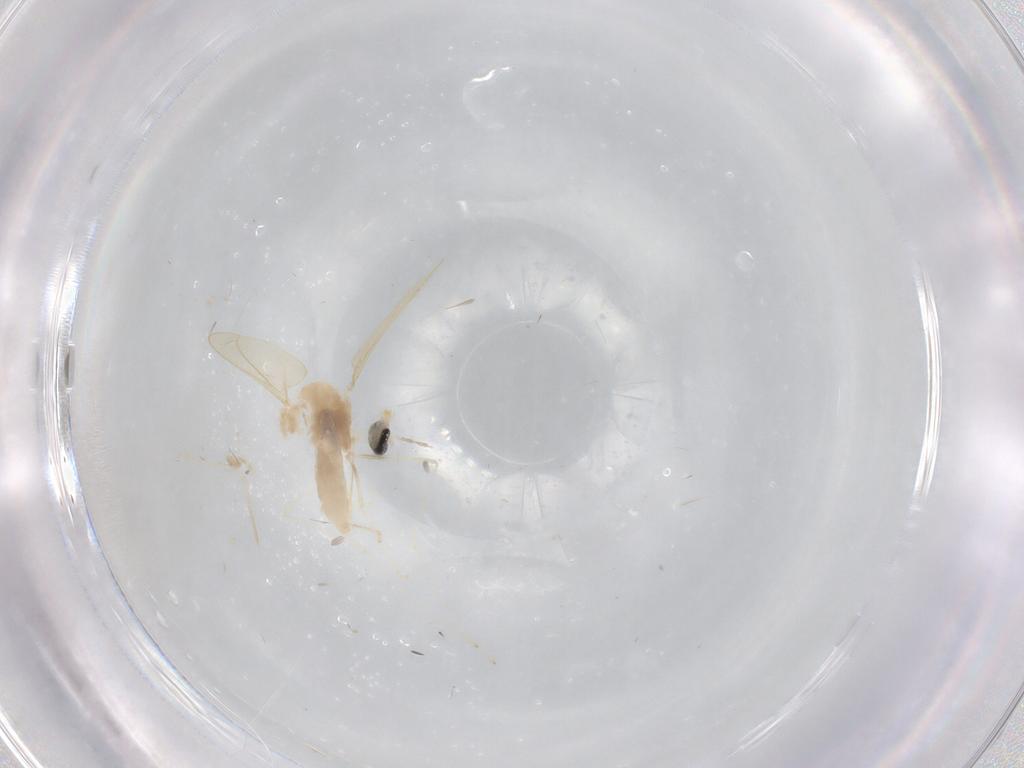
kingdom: Animalia
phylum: Arthropoda
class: Insecta
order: Diptera
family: Phoridae
